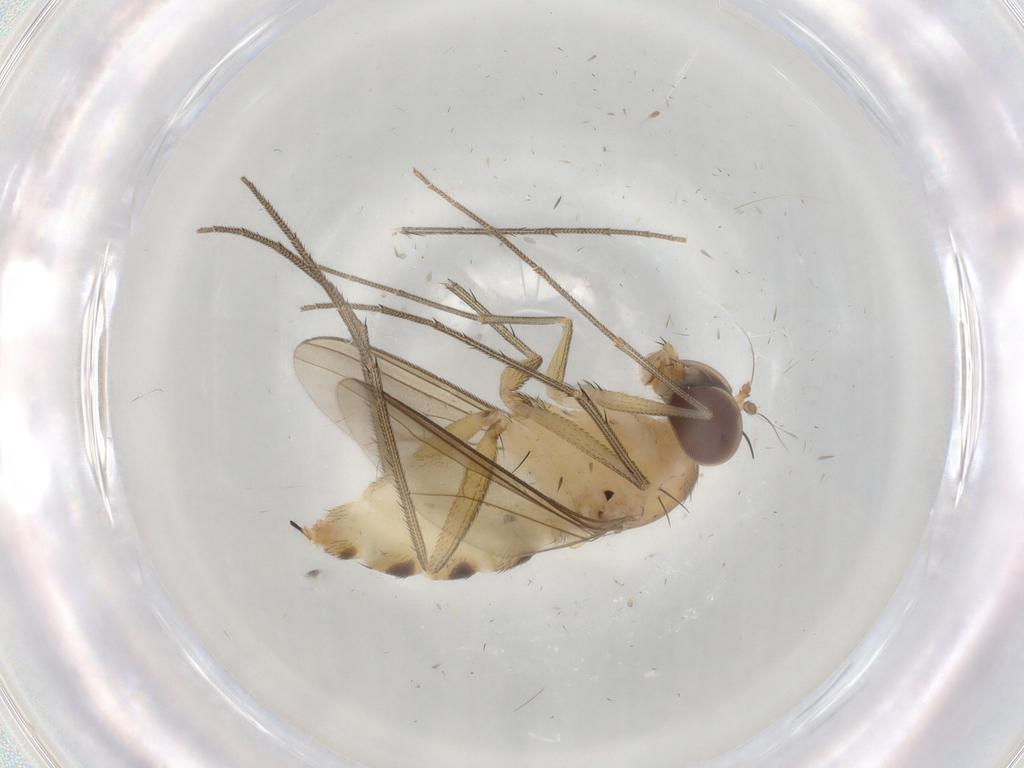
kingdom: Animalia
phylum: Arthropoda
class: Insecta
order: Diptera
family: Dolichopodidae
